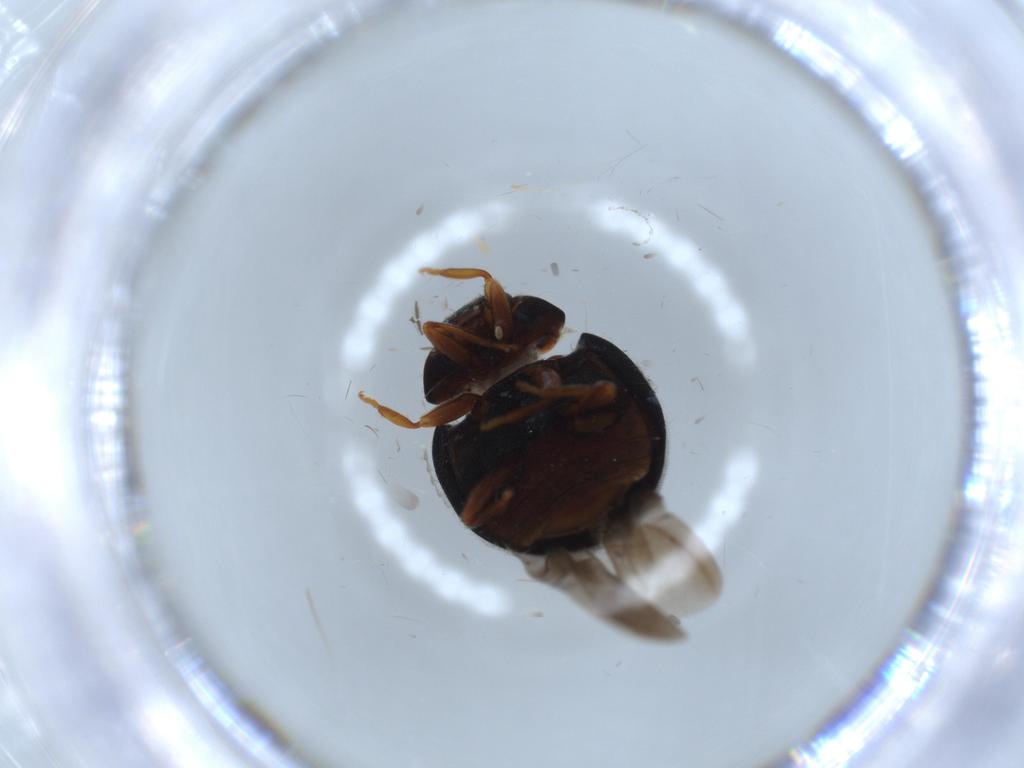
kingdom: Animalia
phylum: Arthropoda
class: Insecta
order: Coleoptera
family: Coccinellidae
